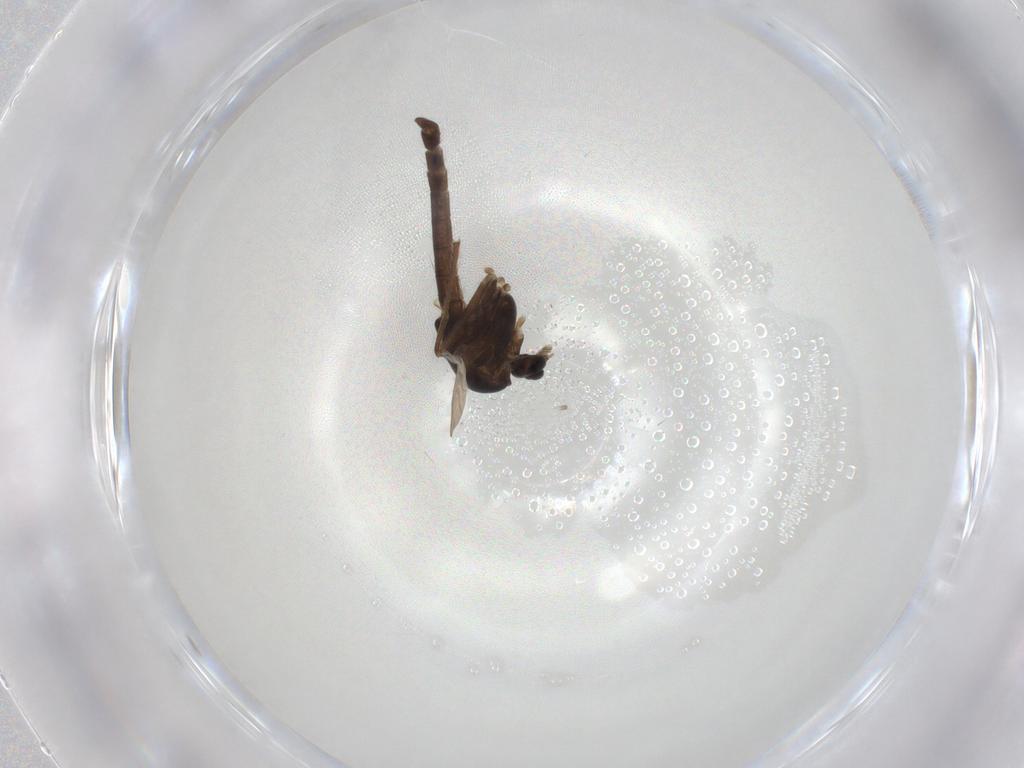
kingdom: Animalia
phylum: Arthropoda
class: Insecta
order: Diptera
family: Chironomidae
